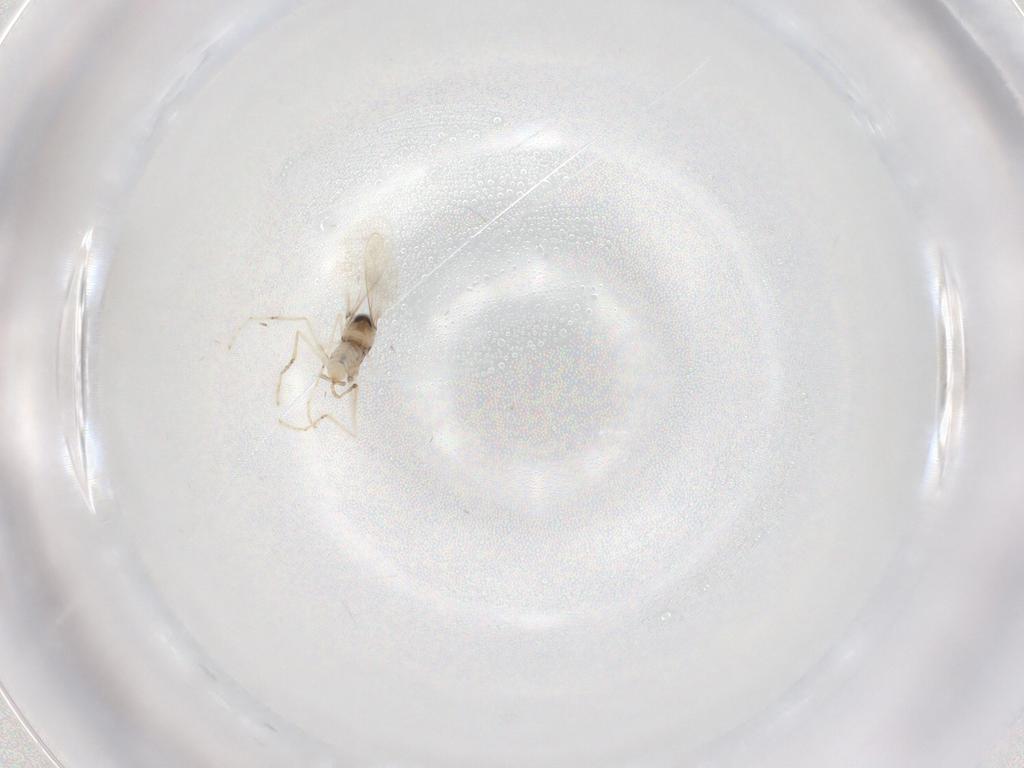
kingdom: Animalia
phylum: Arthropoda
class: Insecta
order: Diptera
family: Cecidomyiidae
